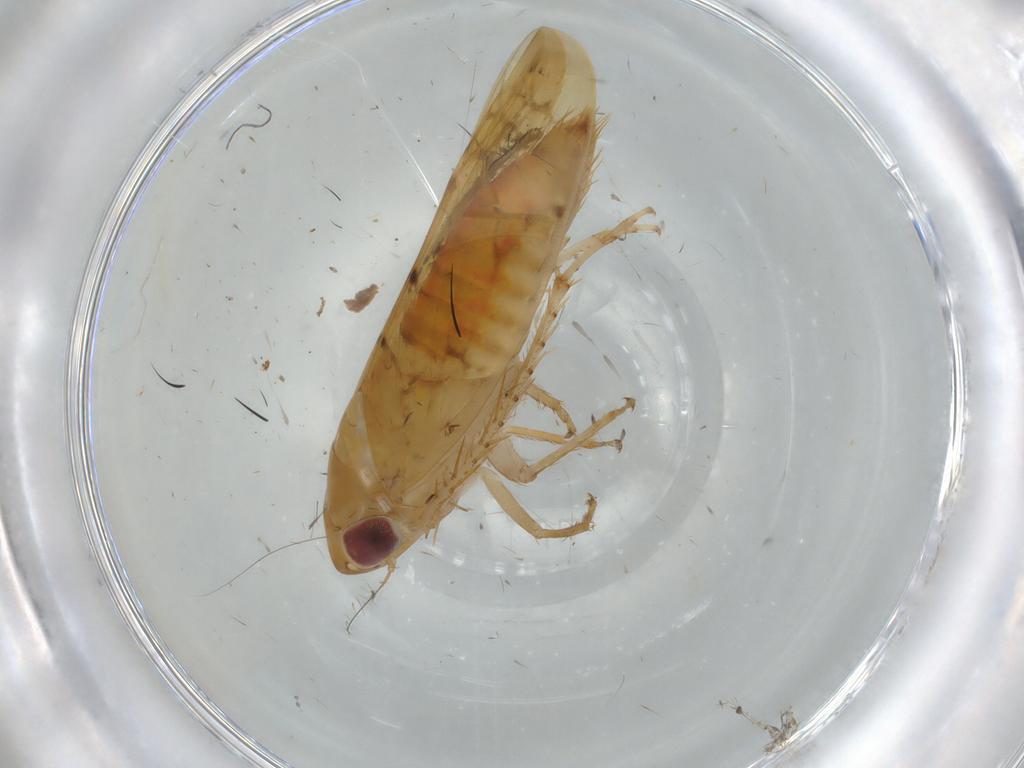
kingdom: Animalia
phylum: Arthropoda
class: Insecta
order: Hemiptera
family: Cicadellidae
